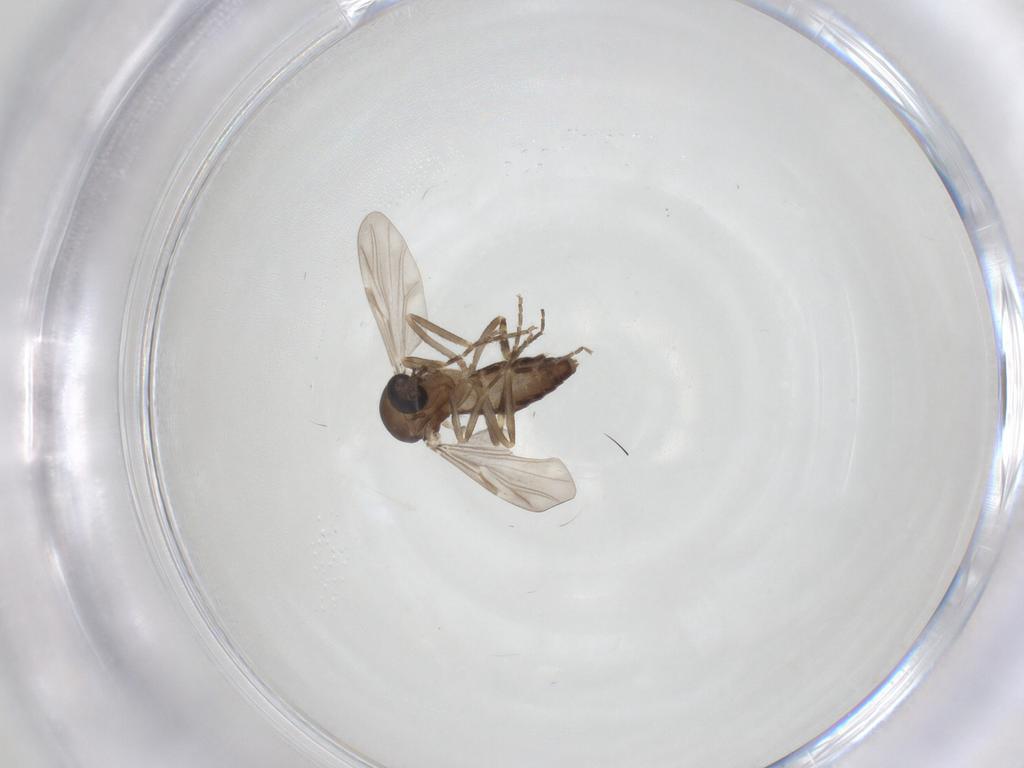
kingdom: Animalia
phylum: Arthropoda
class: Insecta
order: Diptera
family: Ceratopogonidae
